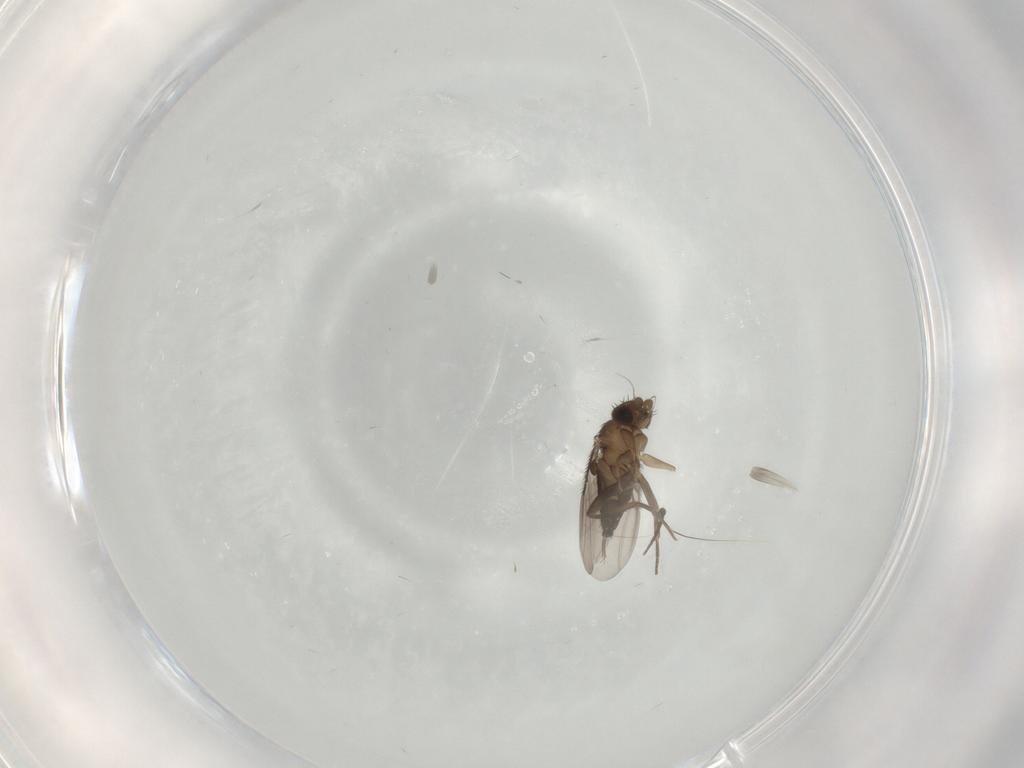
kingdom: Animalia
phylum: Arthropoda
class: Insecta
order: Diptera
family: Phoridae
